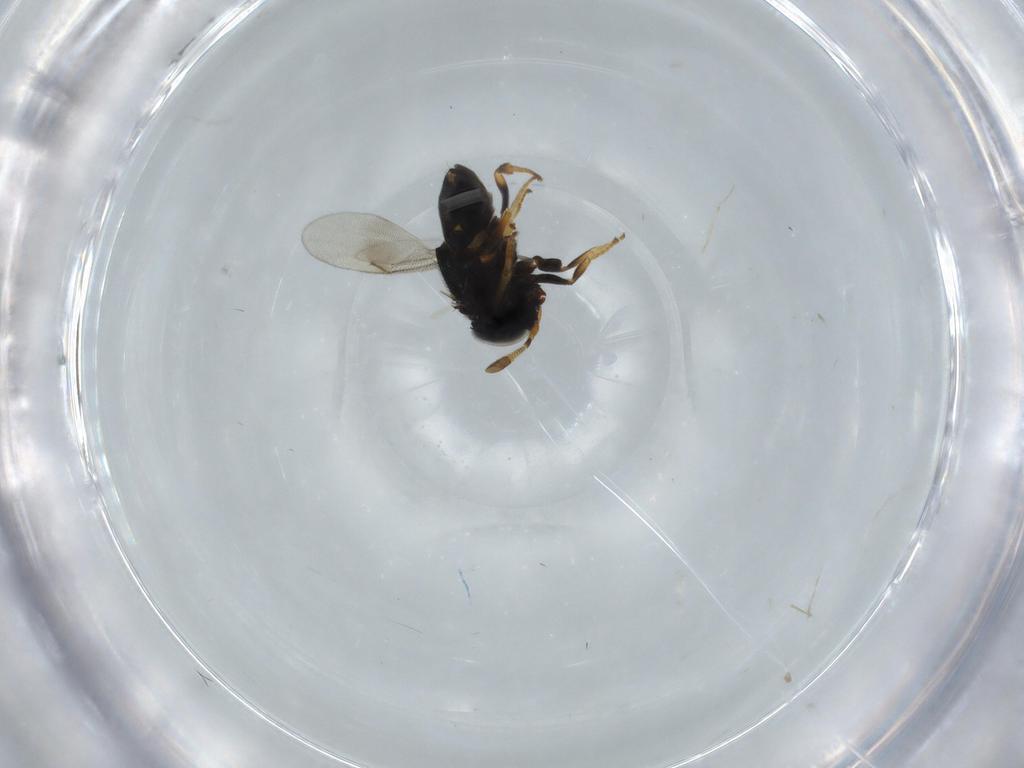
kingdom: Animalia
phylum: Arthropoda
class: Insecta
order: Hymenoptera
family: Encyrtidae
